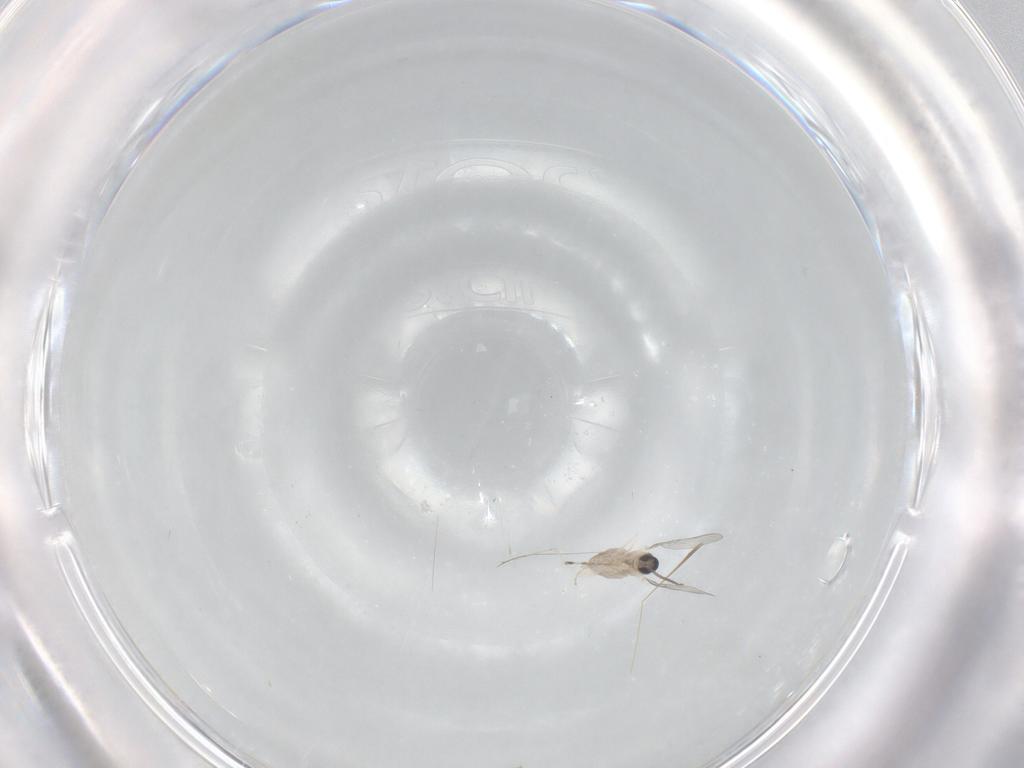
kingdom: Animalia
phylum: Arthropoda
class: Insecta
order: Diptera
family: Cecidomyiidae
